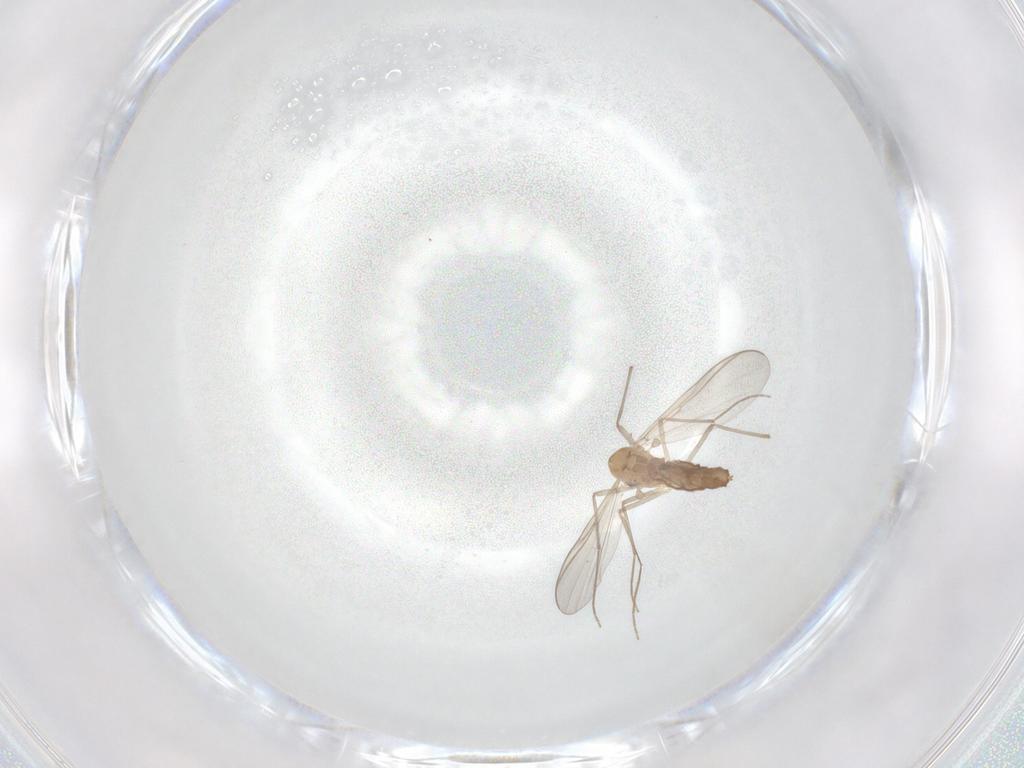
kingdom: Animalia
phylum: Arthropoda
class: Insecta
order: Diptera
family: Chironomidae
